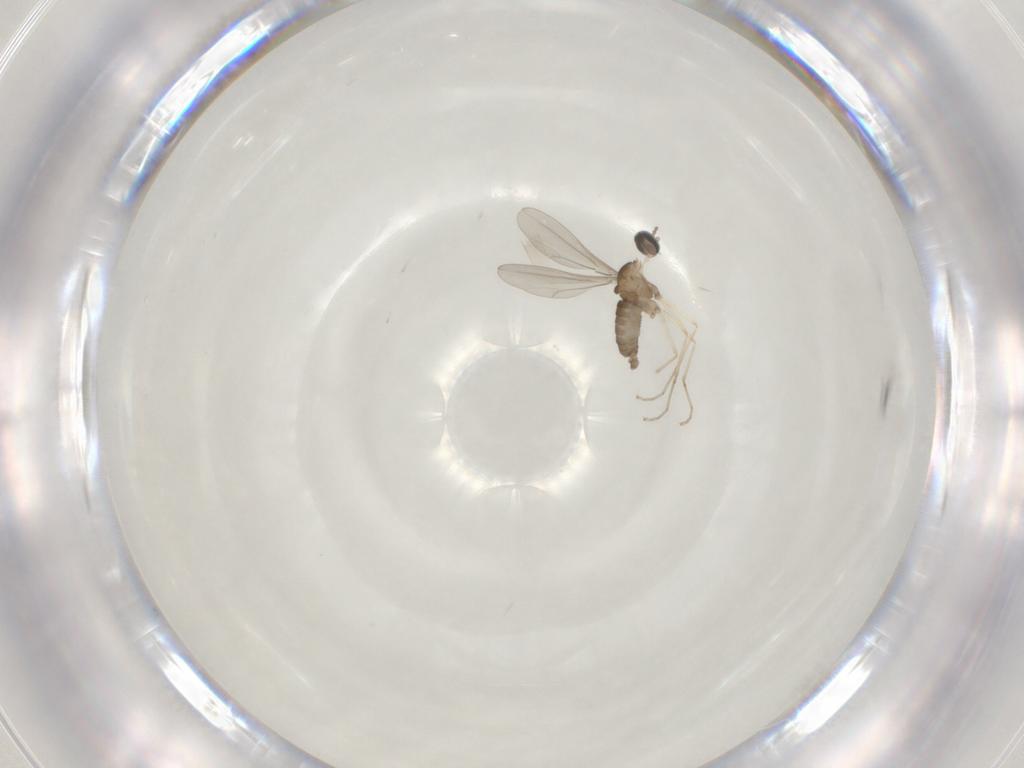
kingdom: Animalia
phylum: Arthropoda
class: Insecta
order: Diptera
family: Cecidomyiidae
